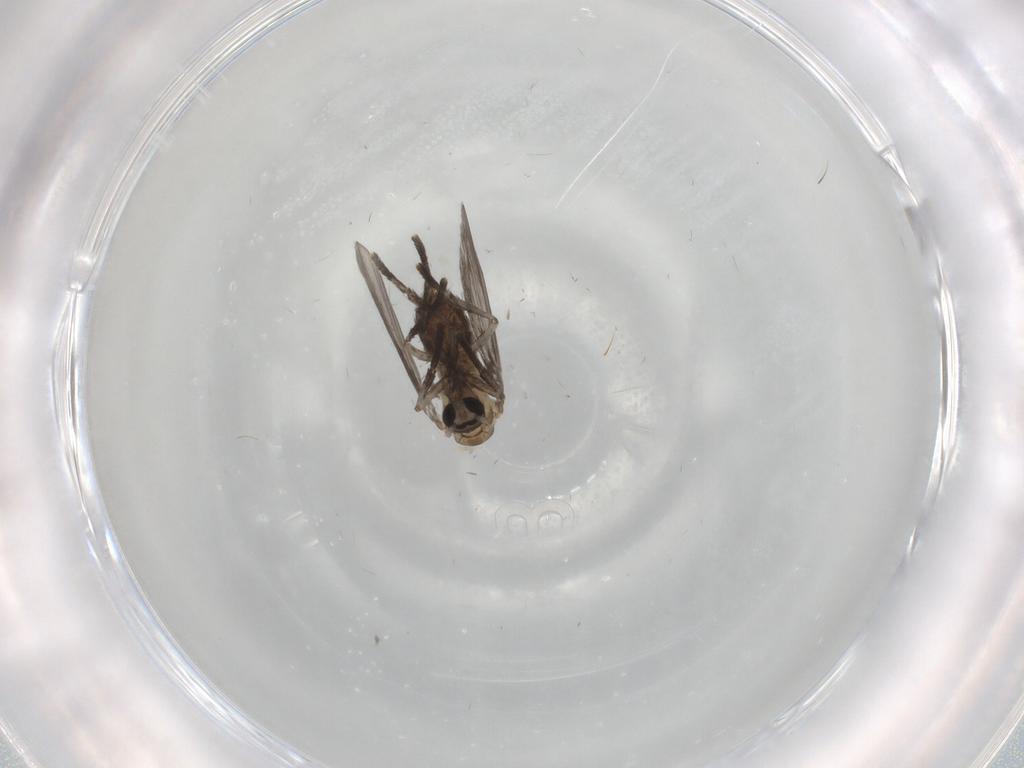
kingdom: Animalia
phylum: Arthropoda
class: Insecta
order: Diptera
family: Psychodidae
